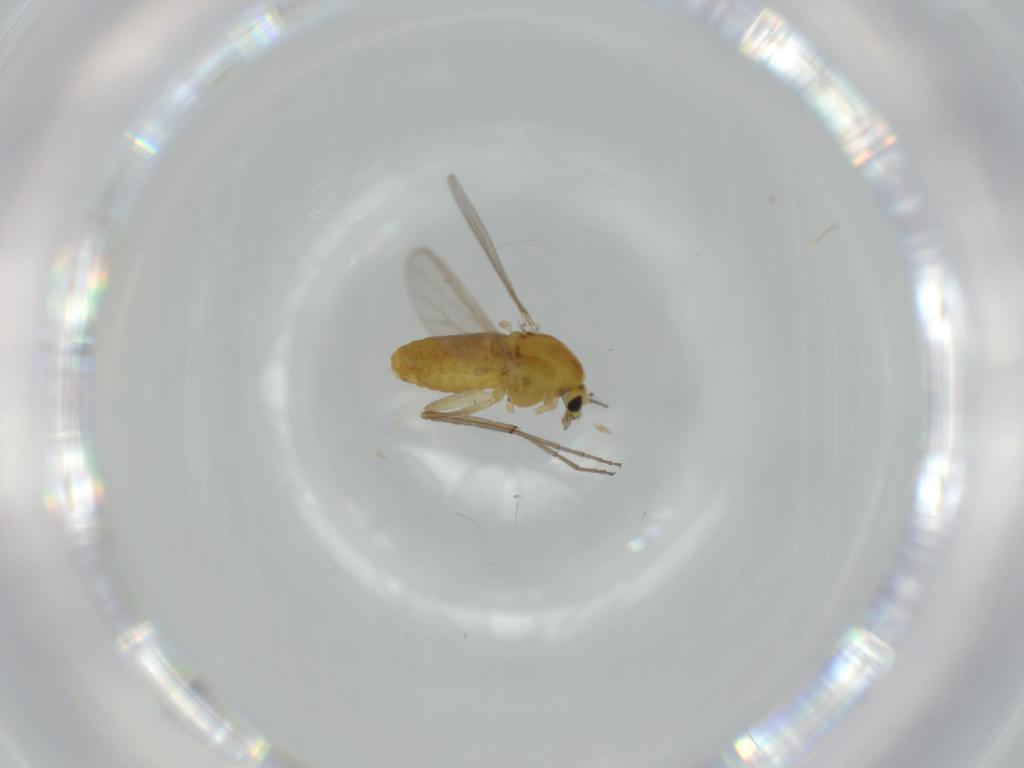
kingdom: Animalia
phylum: Arthropoda
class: Insecta
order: Diptera
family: Chironomidae
